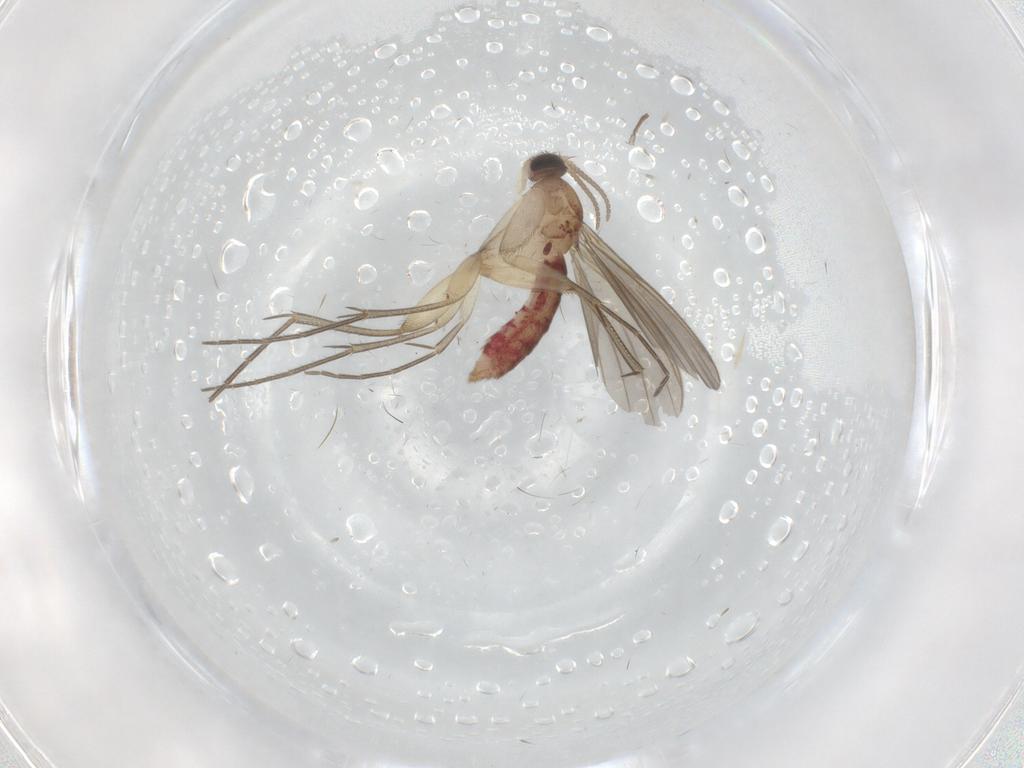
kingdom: Animalia
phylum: Arthropoda
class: Insecta
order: Diptera
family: Mycetophilidae
